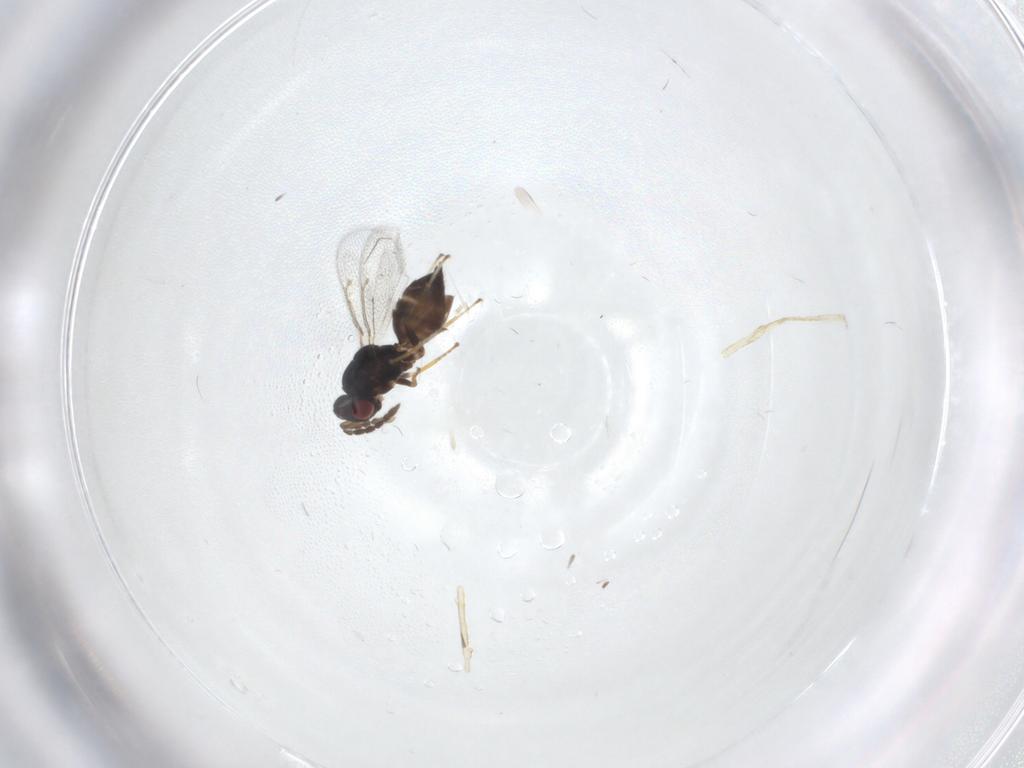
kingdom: Animalia
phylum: Arthropoda
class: Insecta
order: Hymenoptera
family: Eulophidae
